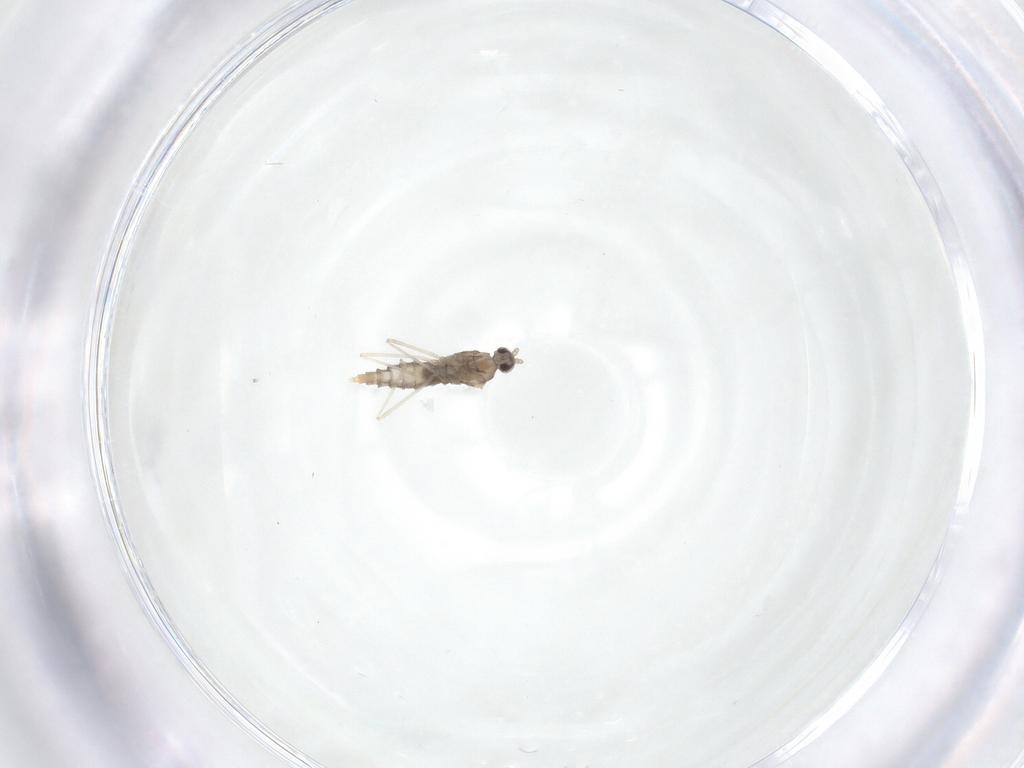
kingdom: Animalia
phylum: Arthropoda
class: Insecta
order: Diptera
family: Cecidomyiidae
